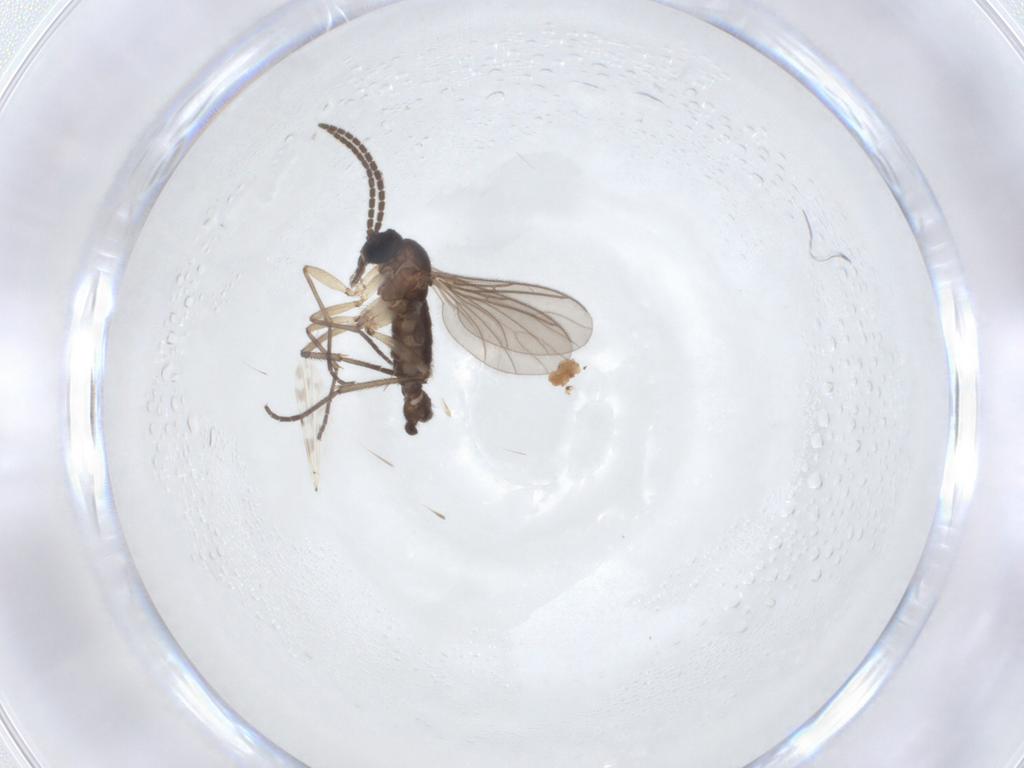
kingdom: Animalia
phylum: Arthropoda
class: Insecta
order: Diptera
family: Sciaridae
